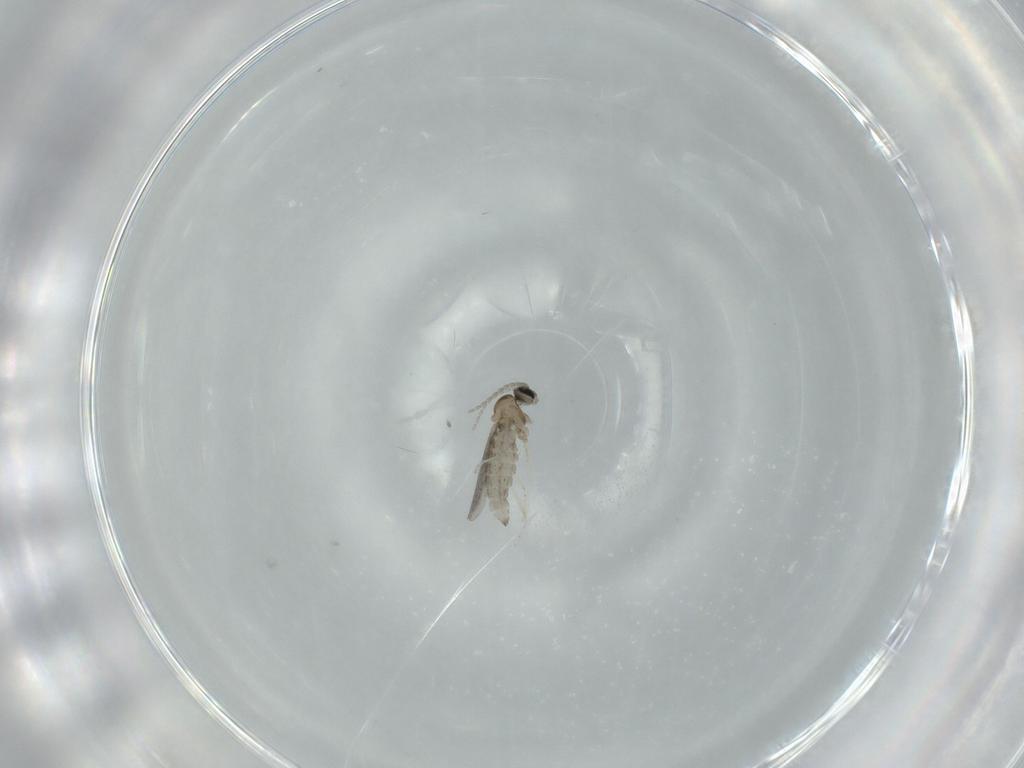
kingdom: Animalia
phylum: Arthropoda
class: Insecta
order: Diptera
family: Cecidomyiidae
